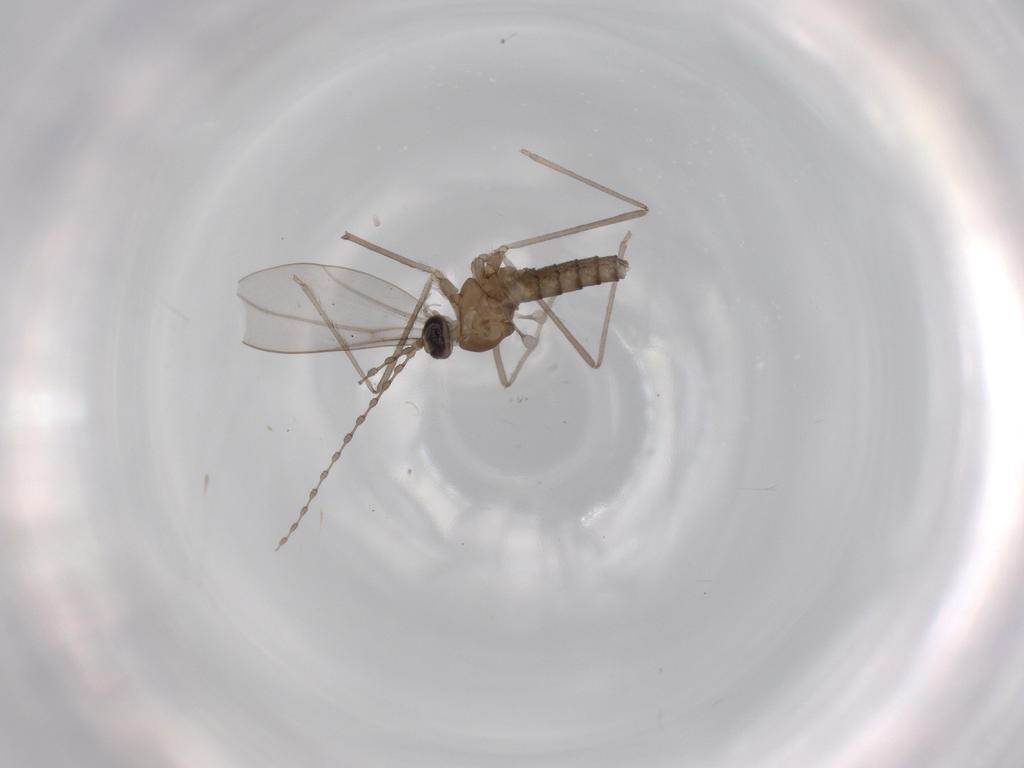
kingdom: Animalia
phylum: Arthropoda
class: Insecta
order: Diptera
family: Cecidomyiidae
